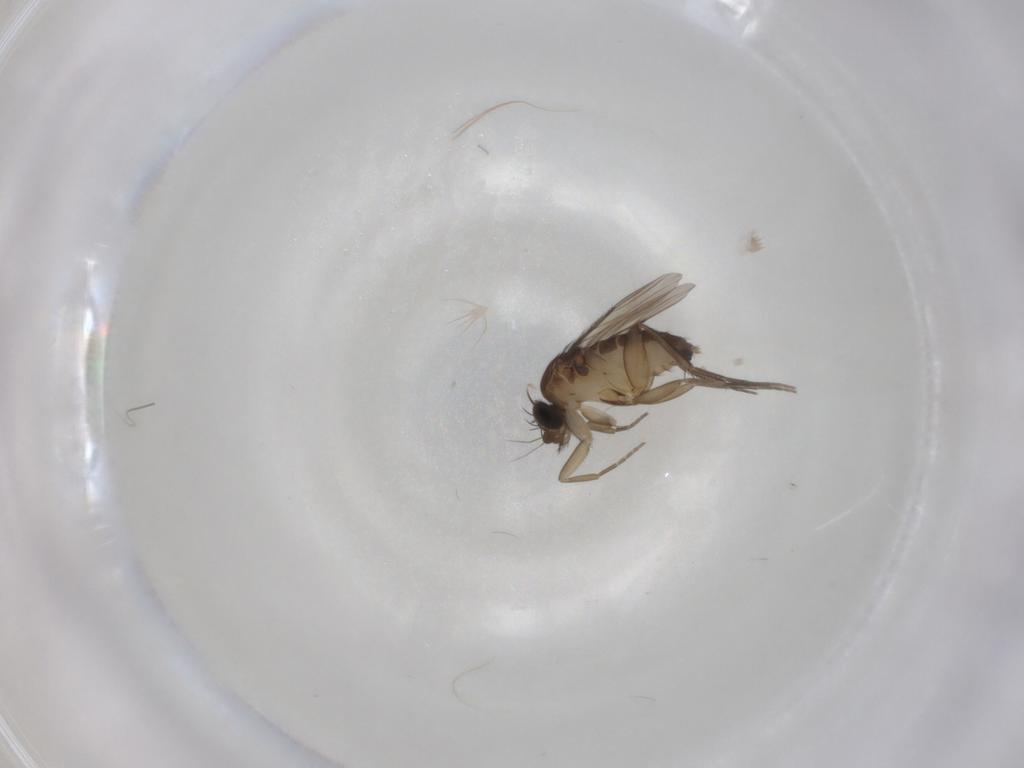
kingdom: Animalia
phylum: Arthropoda
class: Insecta
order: Diptera
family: Phoridae
